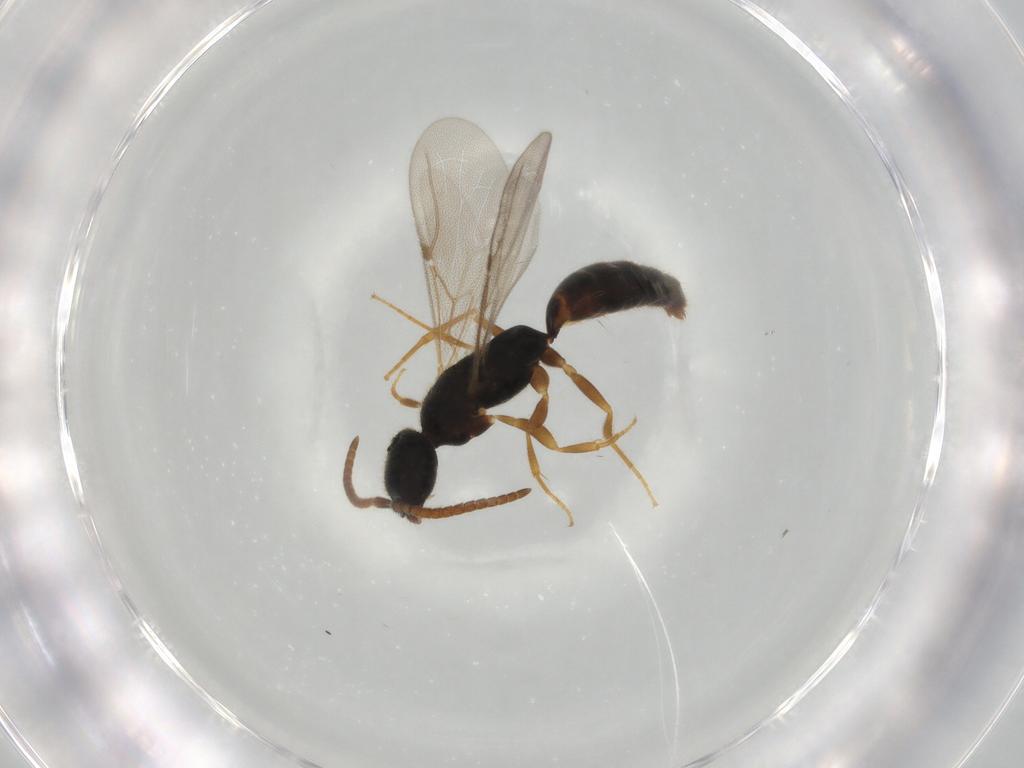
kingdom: Animalia
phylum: Arthropoda
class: Insecta
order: Hymenoptera
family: Bethylidae
